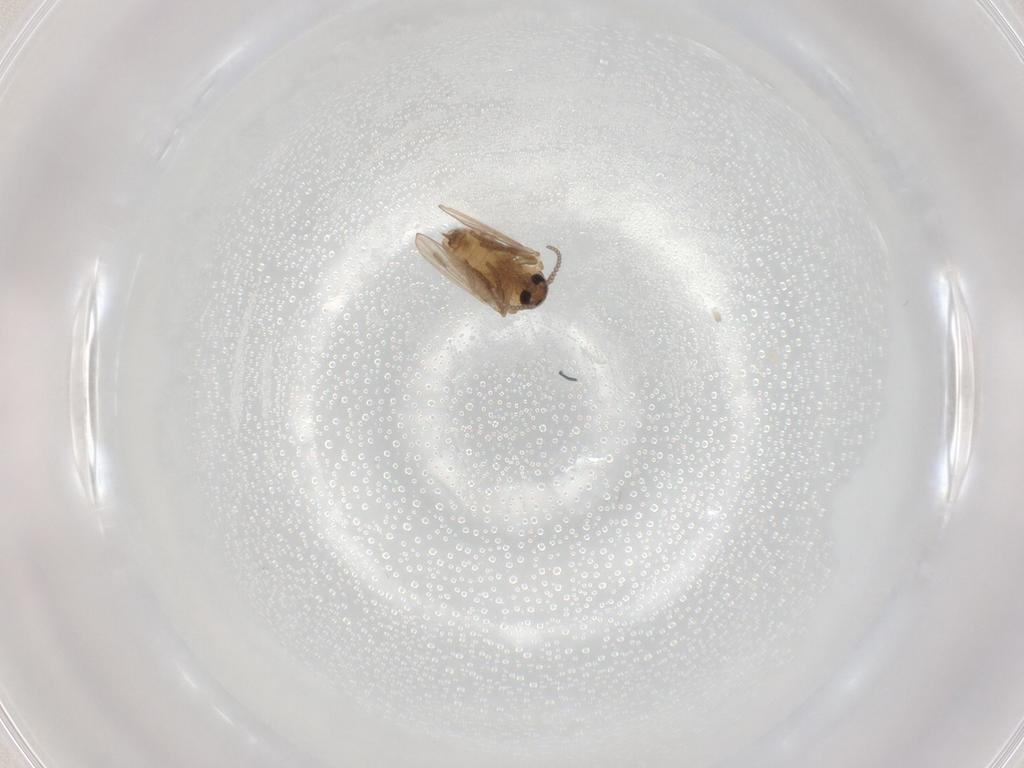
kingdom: Animalia
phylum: Arthropoda
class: Insecta
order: Diptera
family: Psychodidae
